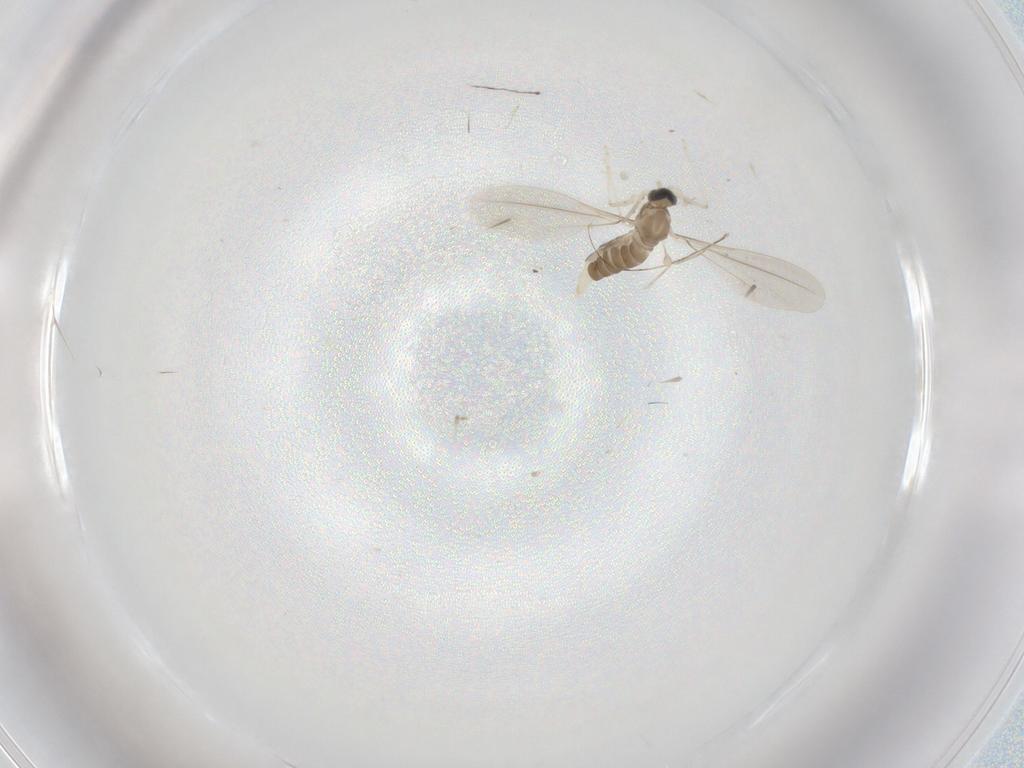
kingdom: Animalia
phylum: Arthropoda
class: Insecta
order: Diptera
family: Cecidomyiidae
